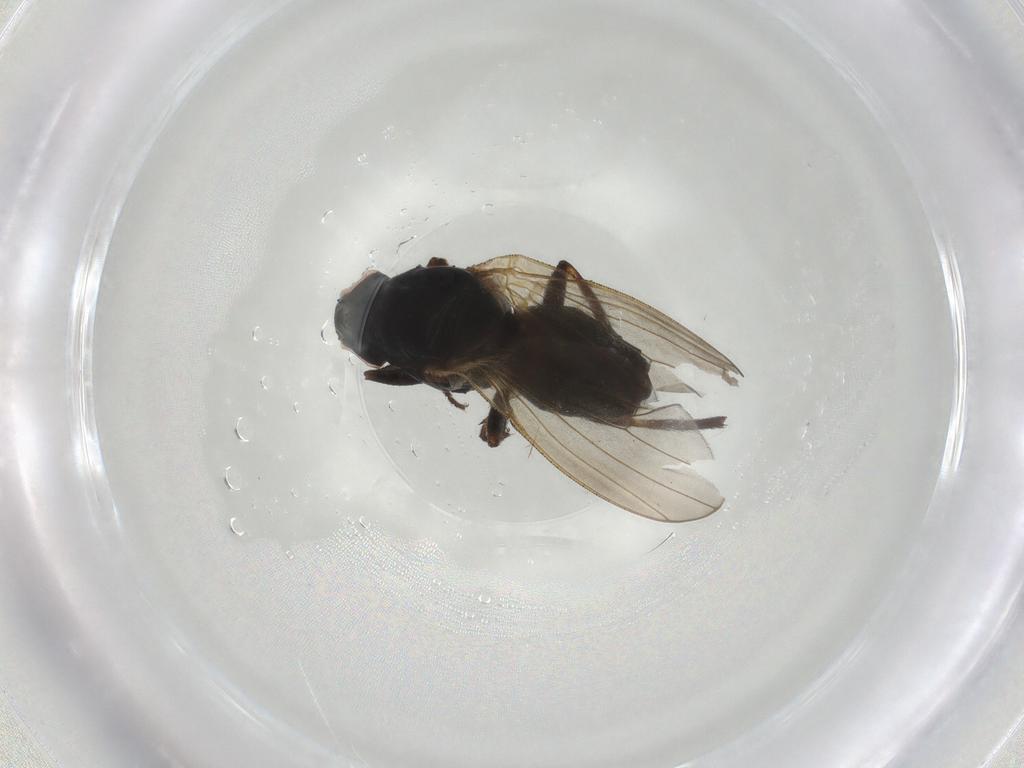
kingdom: Animalia
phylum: Arthropoda
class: Insecta
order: Diptera
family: Heleomyzidae
